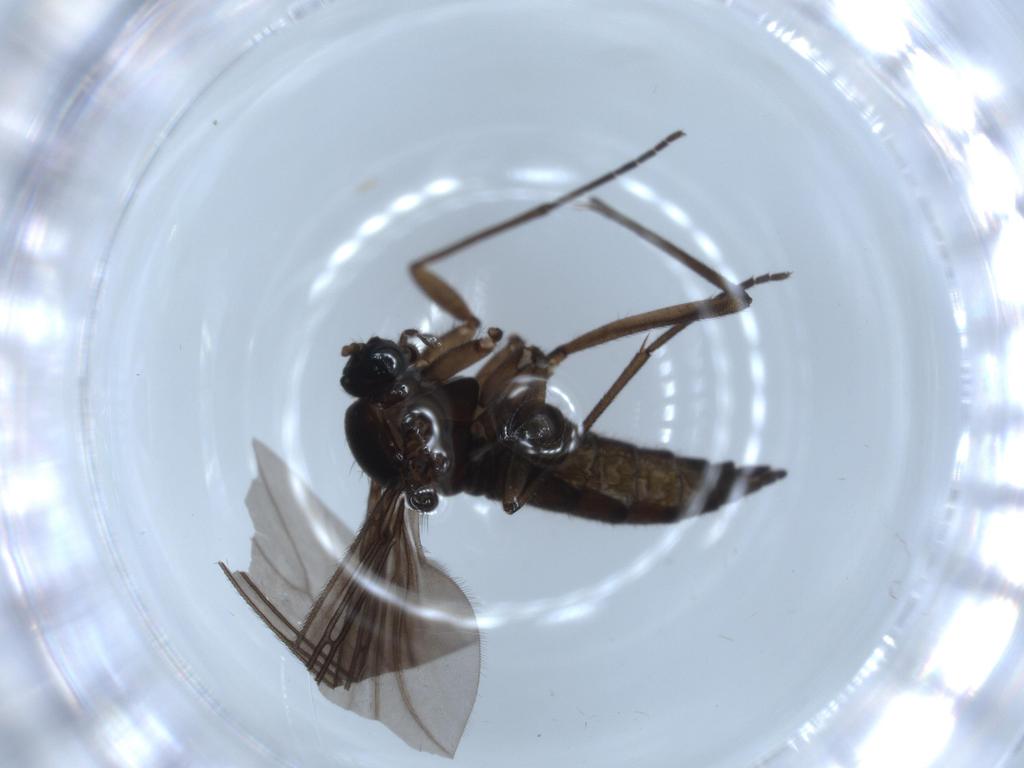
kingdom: Animalia
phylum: Arthropoda
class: Insecta
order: Diptera
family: Sciaridae
